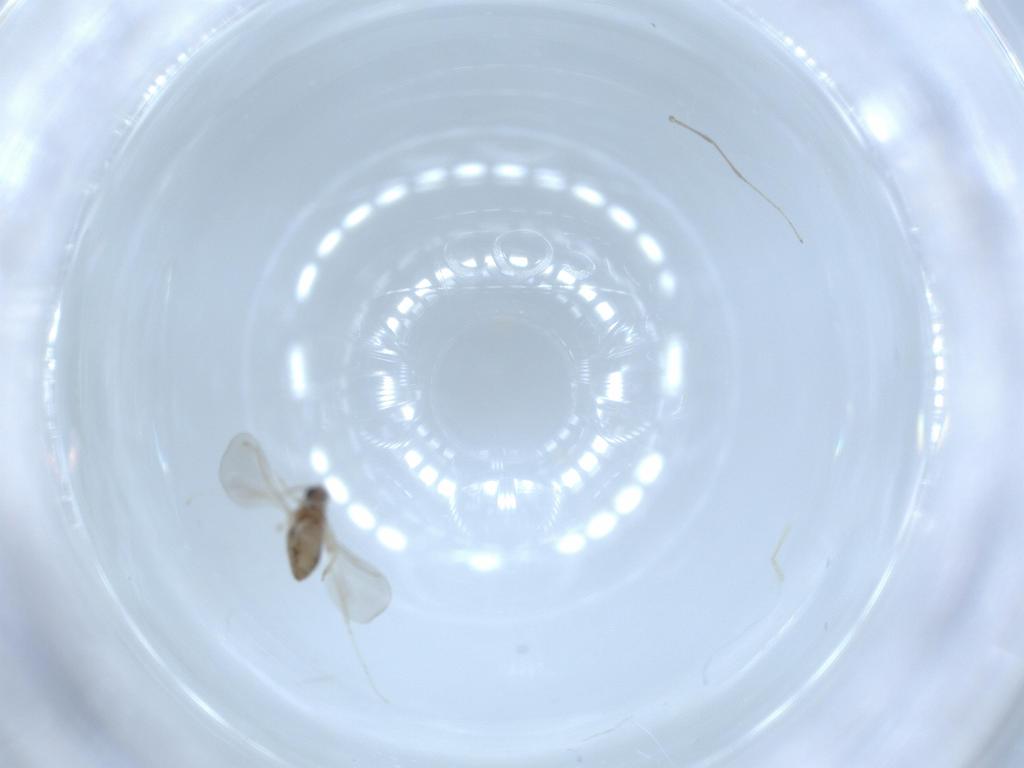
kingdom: Animalia
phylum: Arthropoda
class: Insecta
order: Diptera
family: Cecidomyiidae
